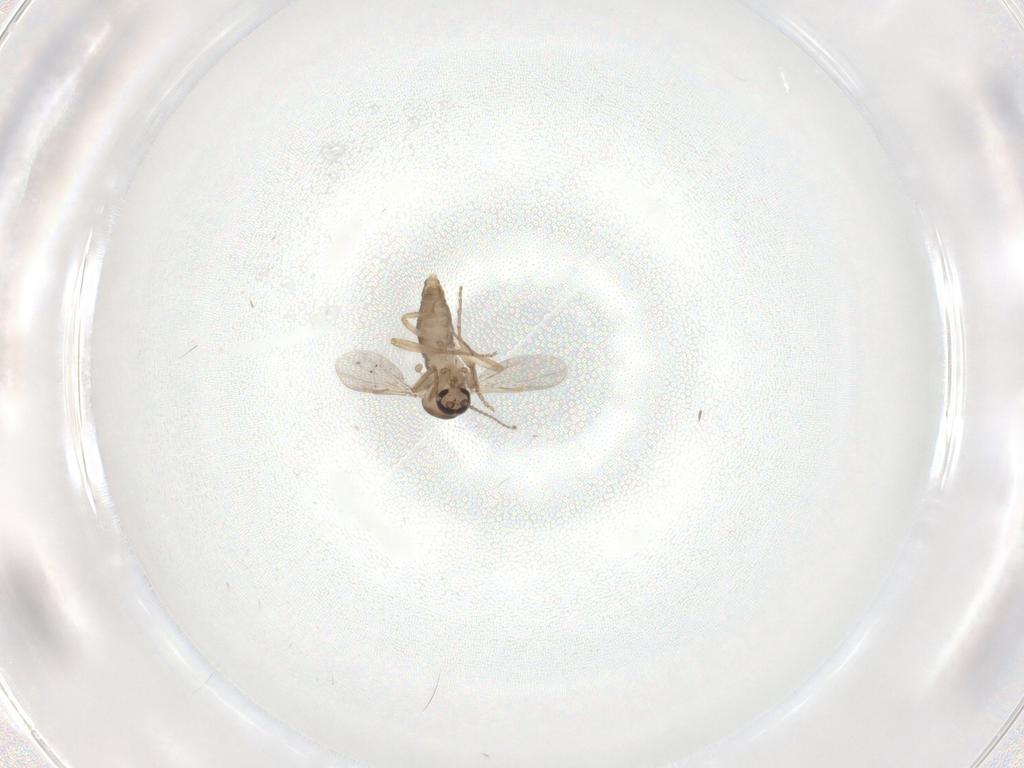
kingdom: Animalia
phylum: Arthropoda
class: Insecta
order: Diptera
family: Ceratopogonidae
